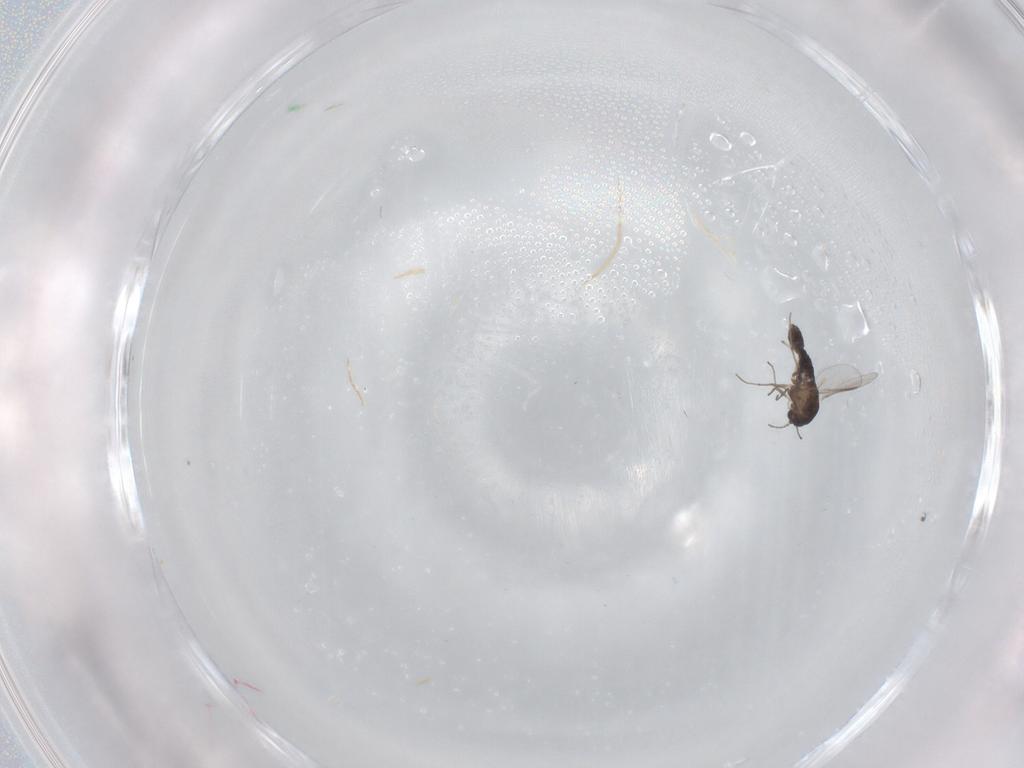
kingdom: Animalia
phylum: Arthropoda
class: Insecta
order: Diptera
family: Chironomidae
